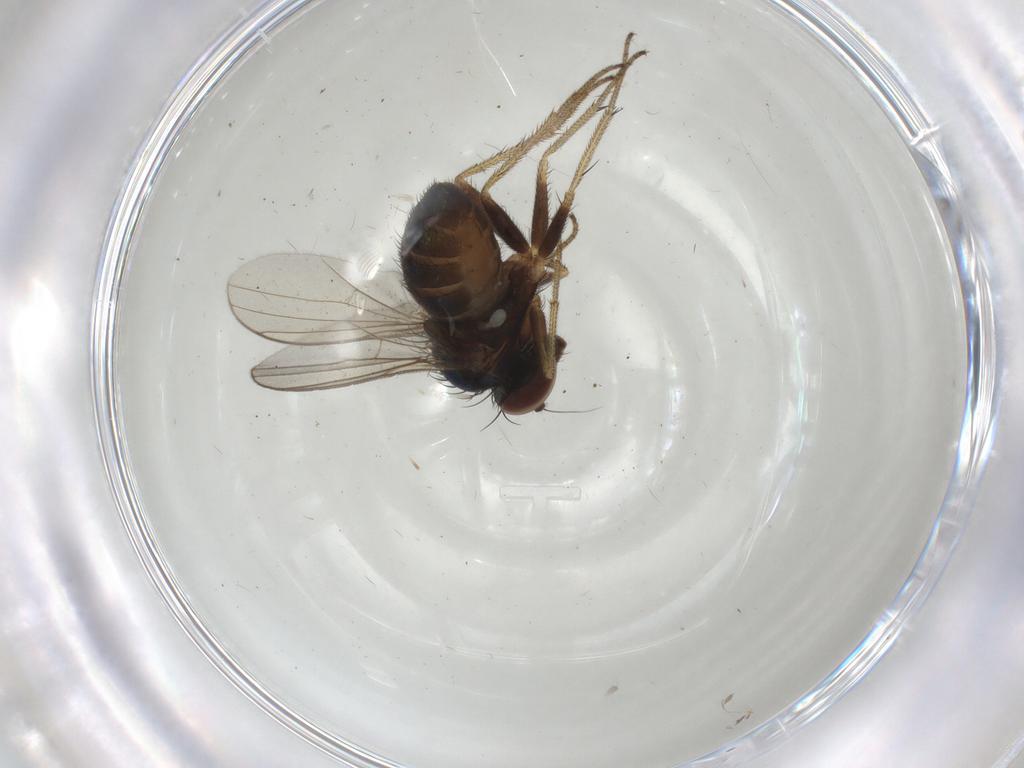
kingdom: Animalia
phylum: Arthropoda
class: Insecta
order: Diptera
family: Dolichopodidae
